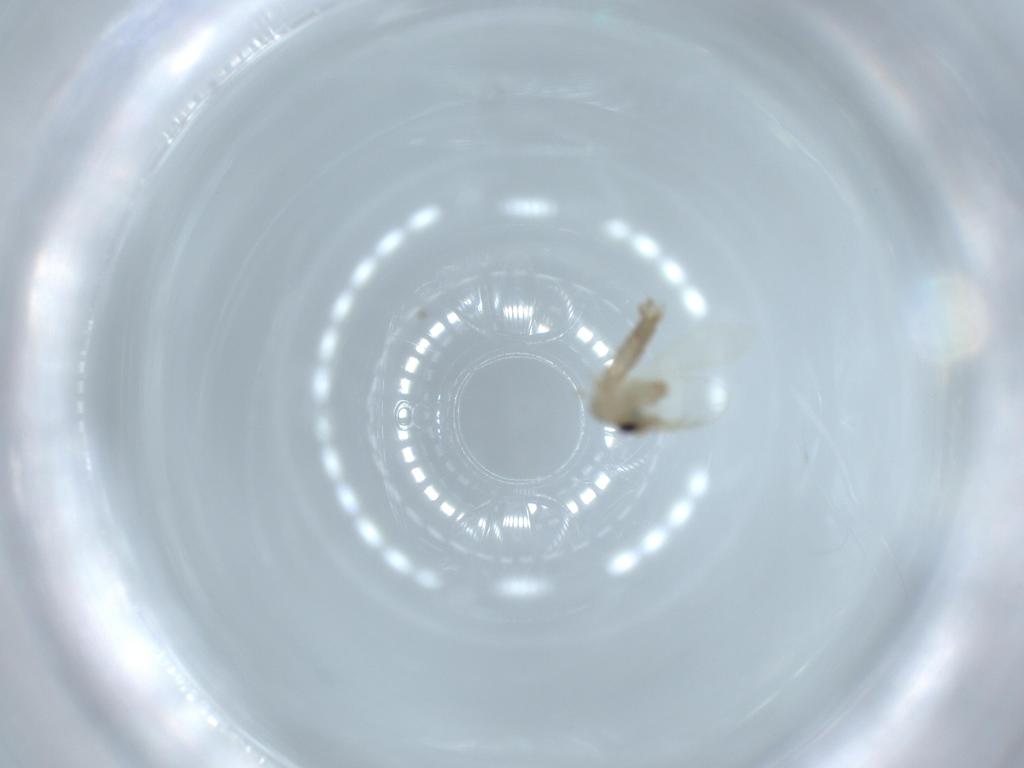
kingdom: Animalia
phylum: Arthropoda
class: Insecta
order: Diptera
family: Psychodidae
